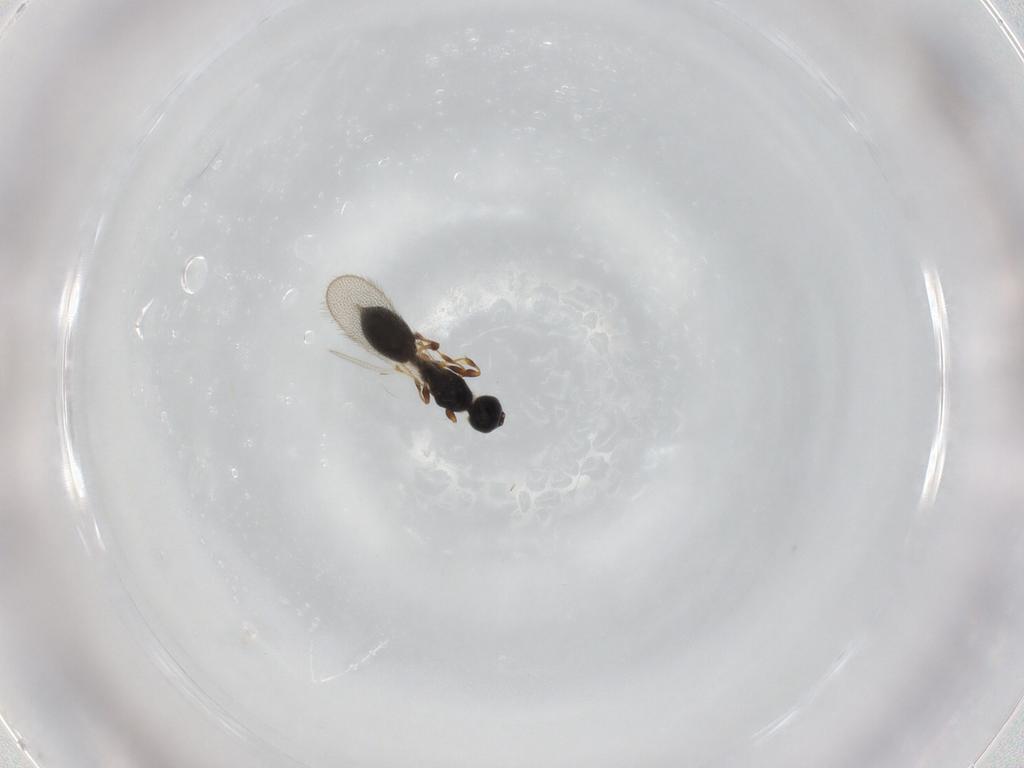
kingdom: Animalia
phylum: Arthropoda
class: Insecta
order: Hymenoptera
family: Diapriidae
